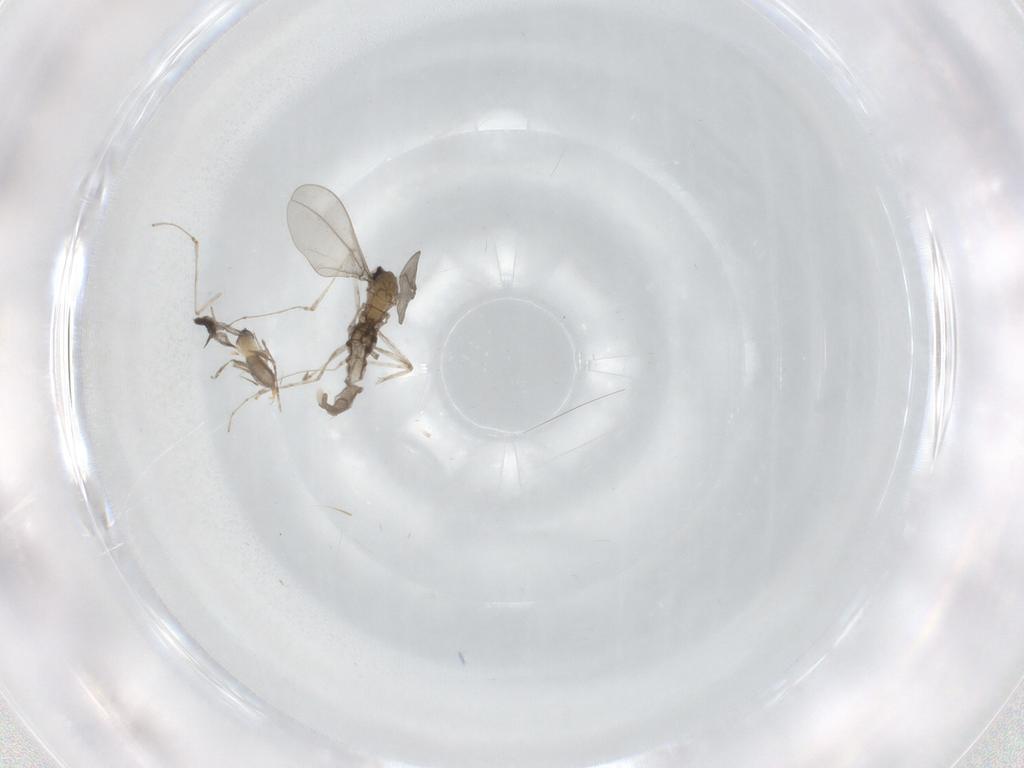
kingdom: Animalia
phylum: Arthropoda
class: Insecta
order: Diptera
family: Cecidomyiidae
